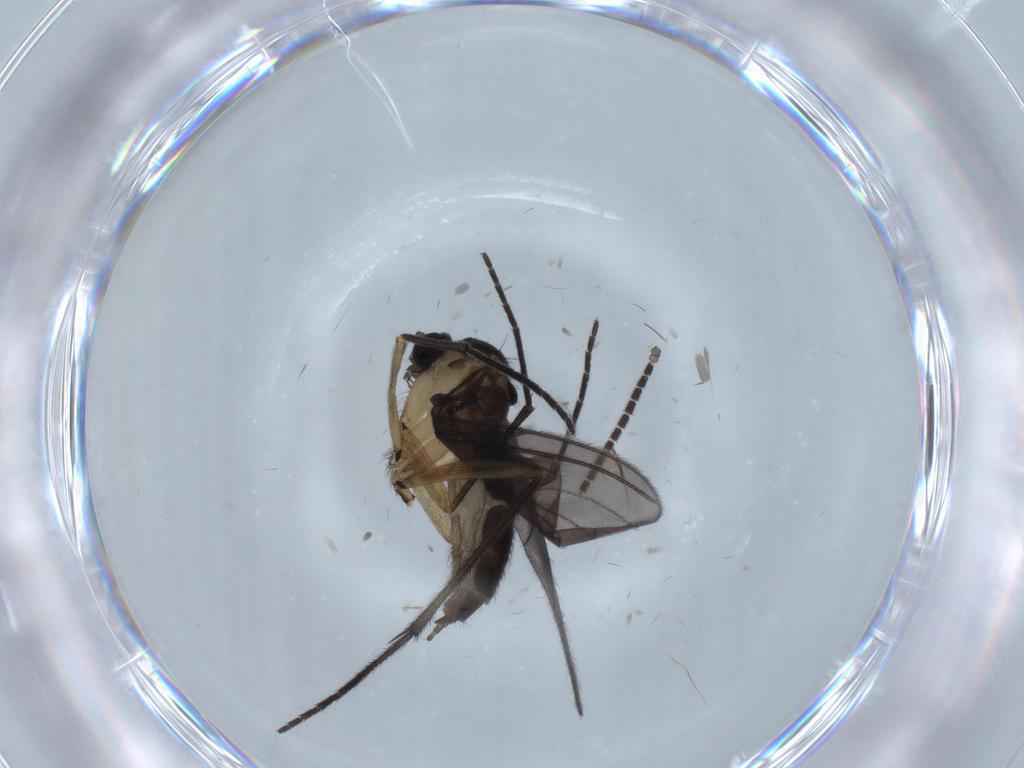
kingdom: Animalia
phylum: Arthropoda
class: Insecta
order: Diptera
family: Sciaridae
